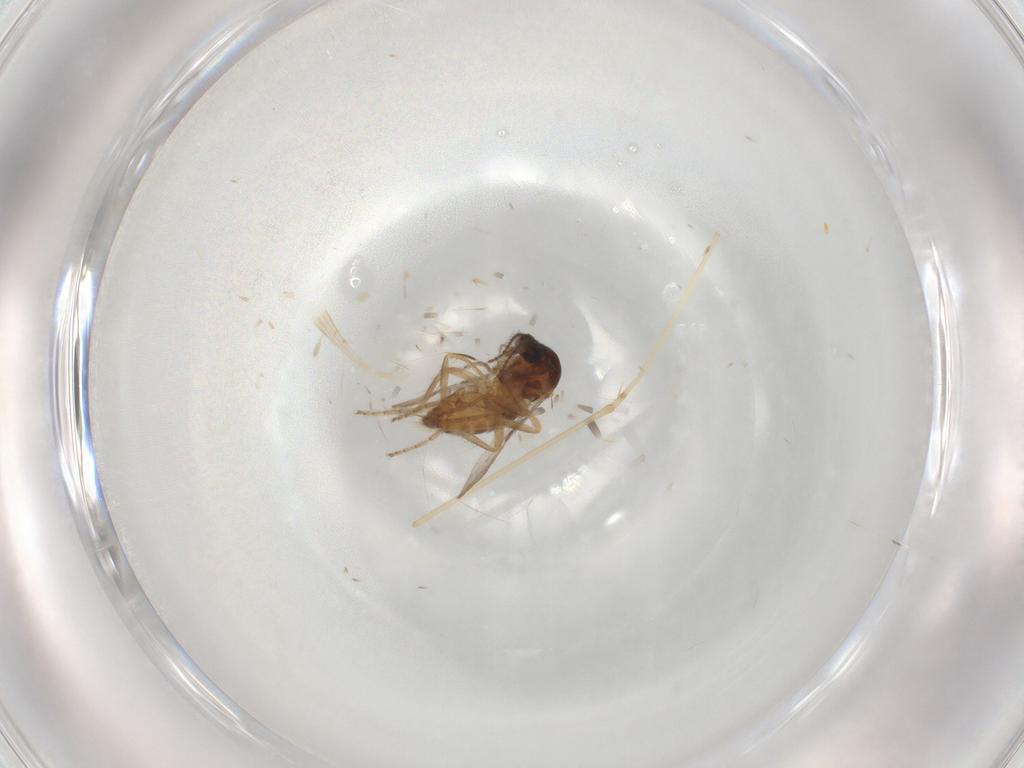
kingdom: Animalia
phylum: Arthropoda
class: Insecta
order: Diptera
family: Cecidomyiidae
